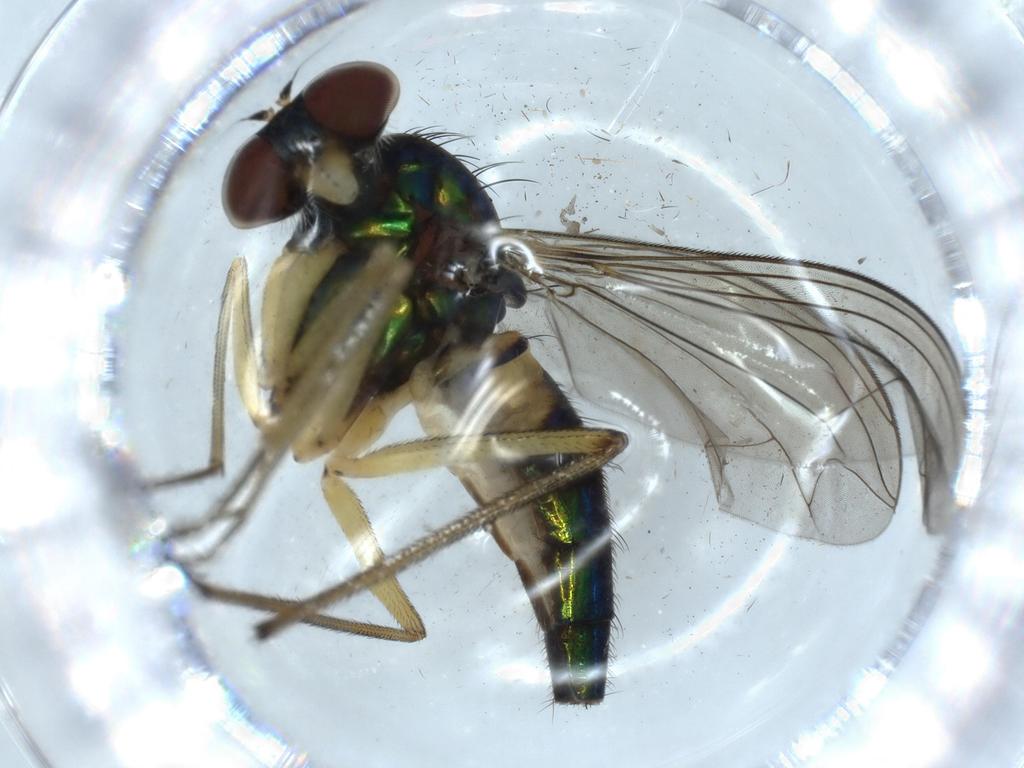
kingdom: Animalia
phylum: Arthropoda
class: Insecta
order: Diptera
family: Dolichopodidae
